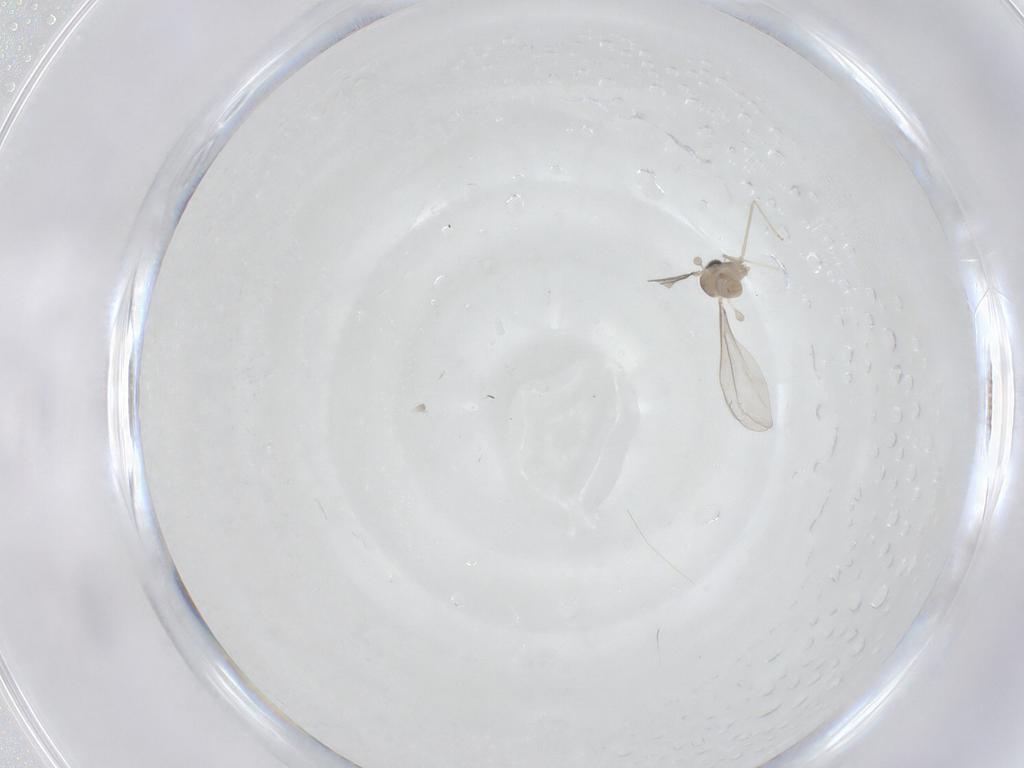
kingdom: Animalia
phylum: Arthropoda
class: Insecta
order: Diptera
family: Cecidomyiidae
